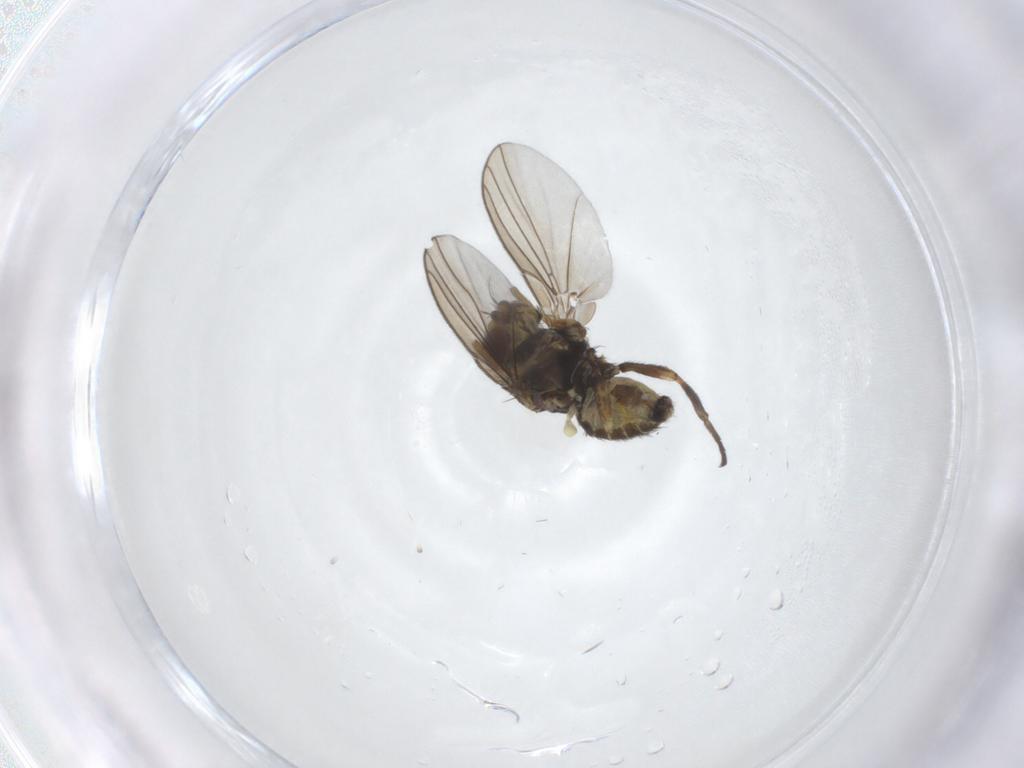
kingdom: Animalia
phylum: Arthropoda
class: Insecta
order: Diptera
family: Agromyzidae
